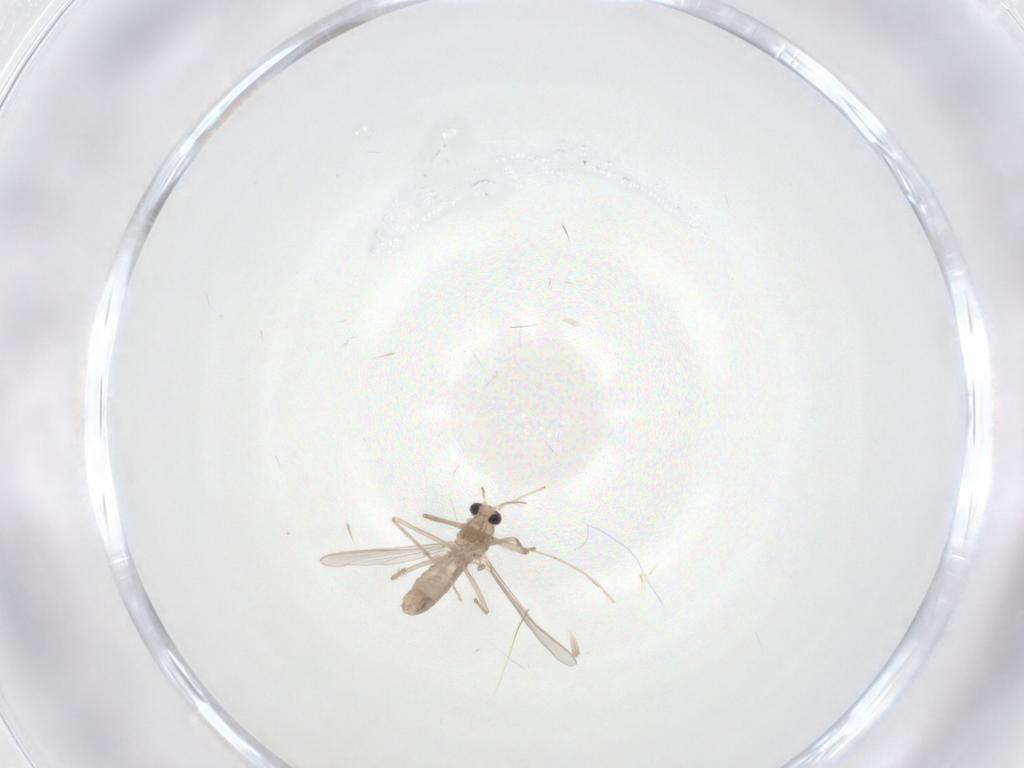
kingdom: Animalia
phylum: Arthropoda
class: Insecta
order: Diptera
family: Chironomidae
